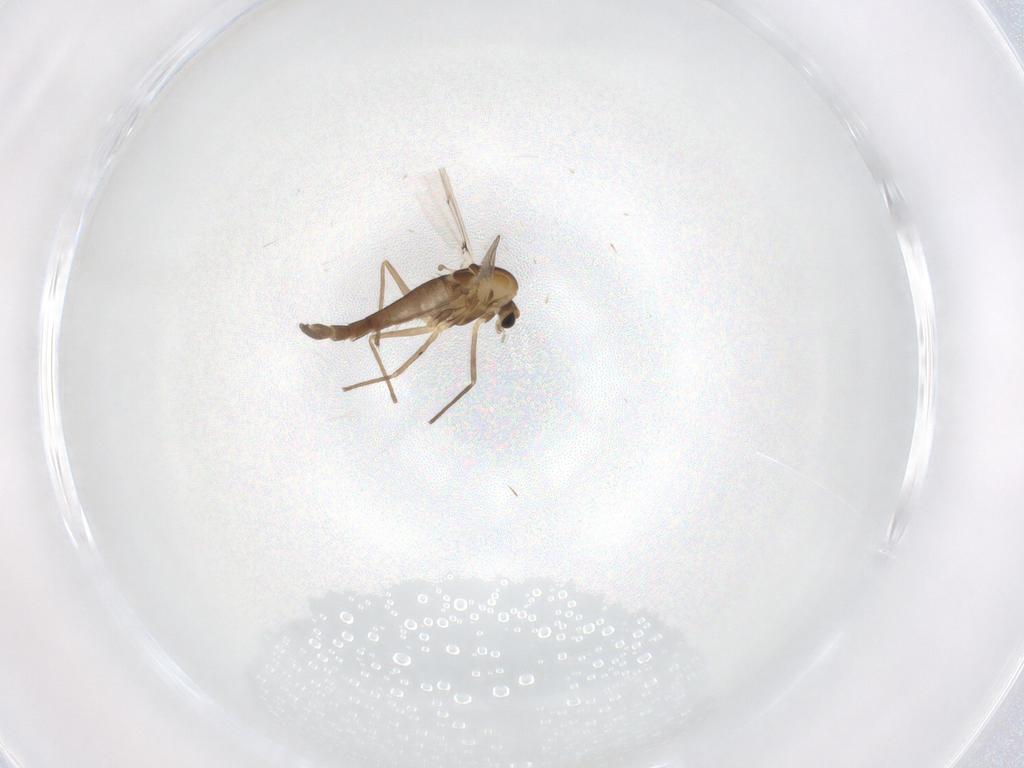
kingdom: Animalia
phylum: Arthropoda
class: Insecta
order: Diptera
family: Chironomidae
